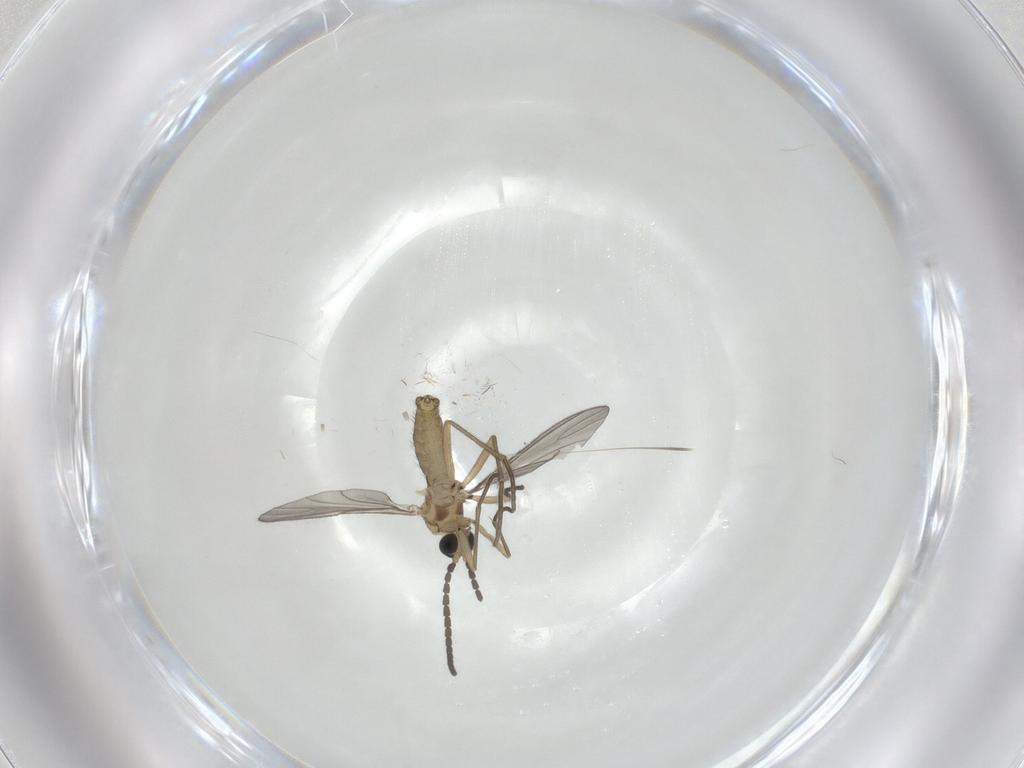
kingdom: Animalia
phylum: Arthropoda
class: Insecta
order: Diptera
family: Sciaridae
